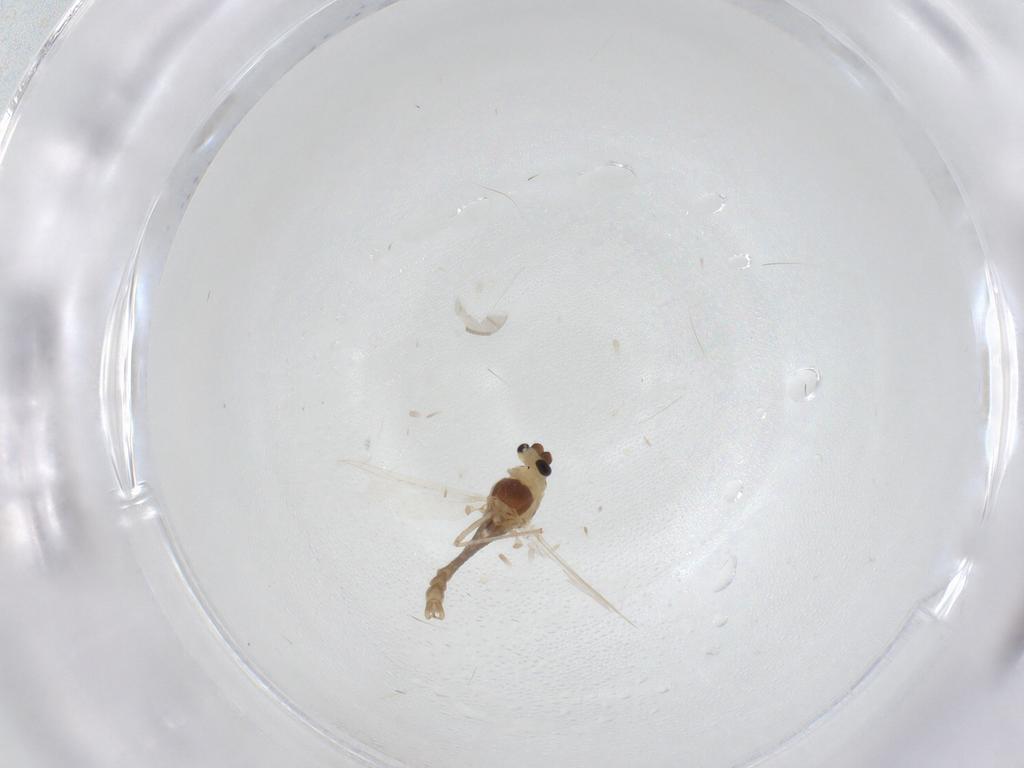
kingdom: Animalia
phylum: Arthropoda
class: Insecta
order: Diptera
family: Chironomidae
